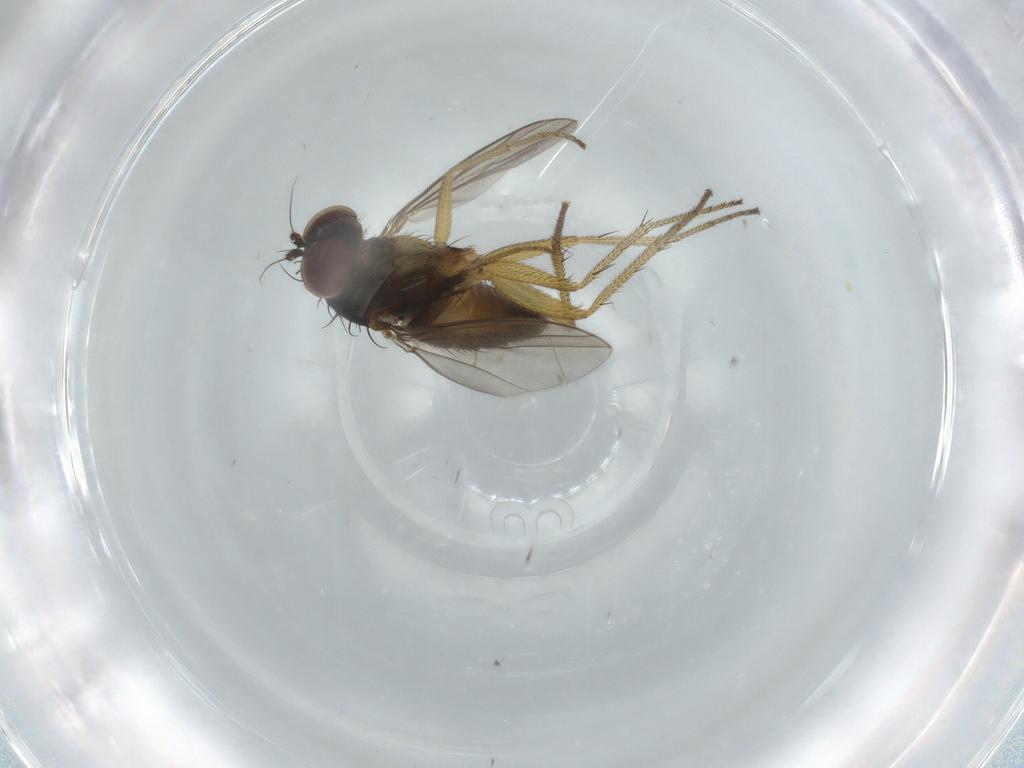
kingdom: Animalia
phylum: Arthropoda
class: Insecta
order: Diptera
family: Dolichopodidae
